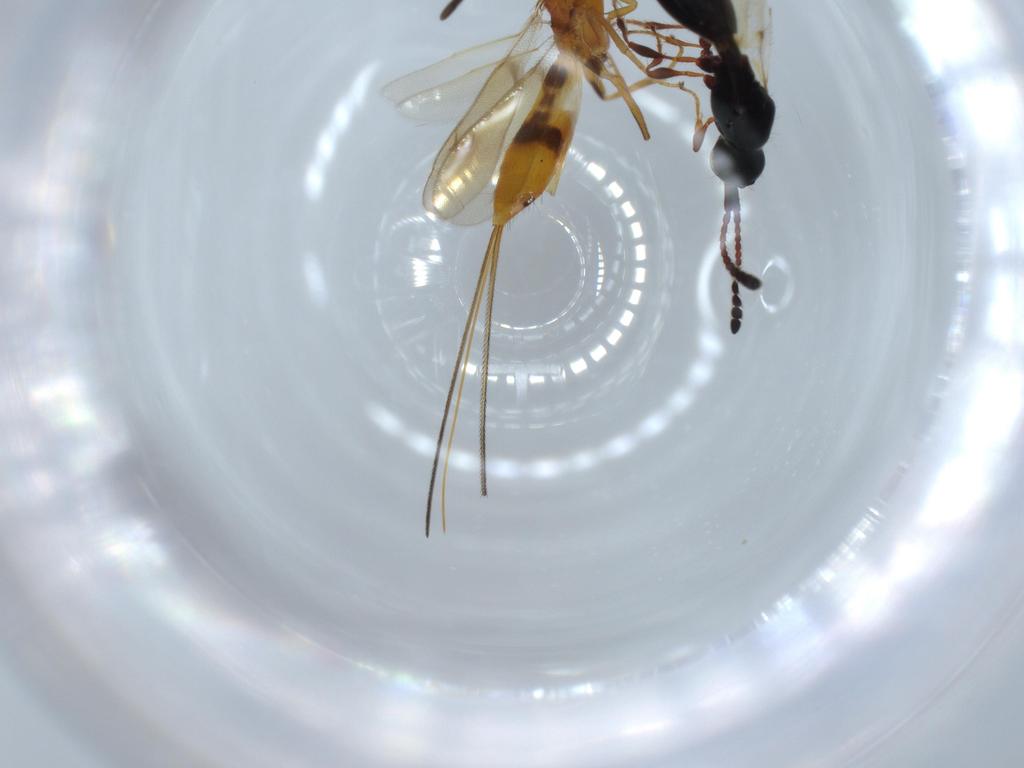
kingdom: Animalia
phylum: Arthropoda
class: Insecta
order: Hymenoptera
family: Diapriidae
